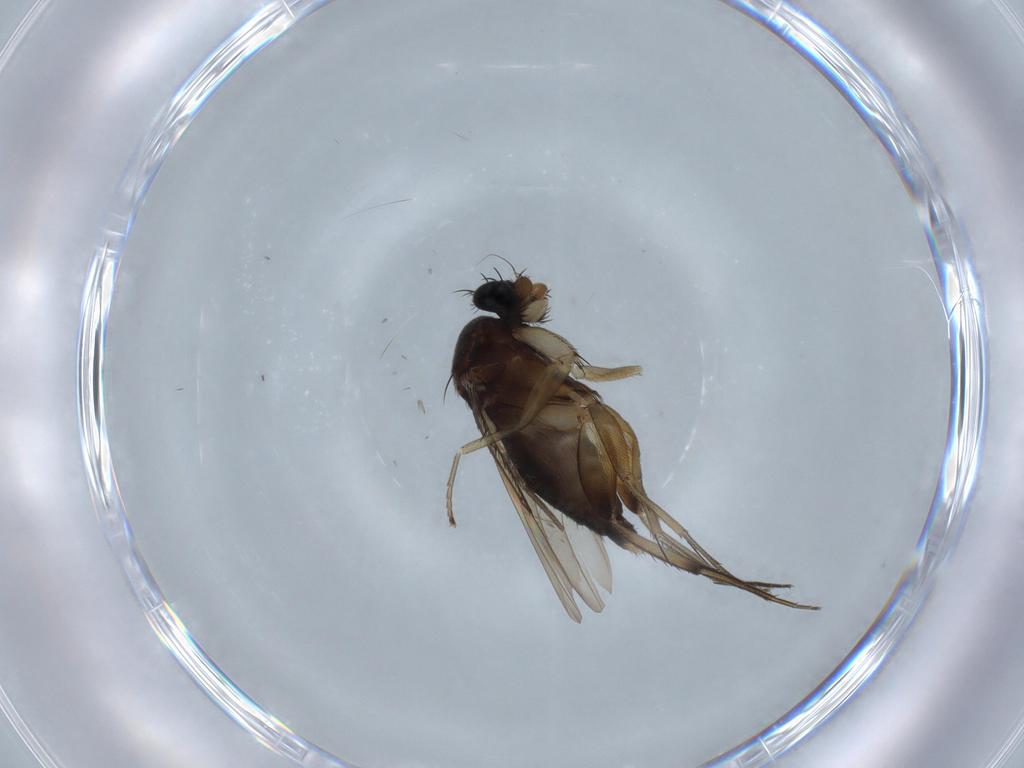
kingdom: Animalia
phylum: Arthropoda
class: Insecta
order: Diptera
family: Phoridae
